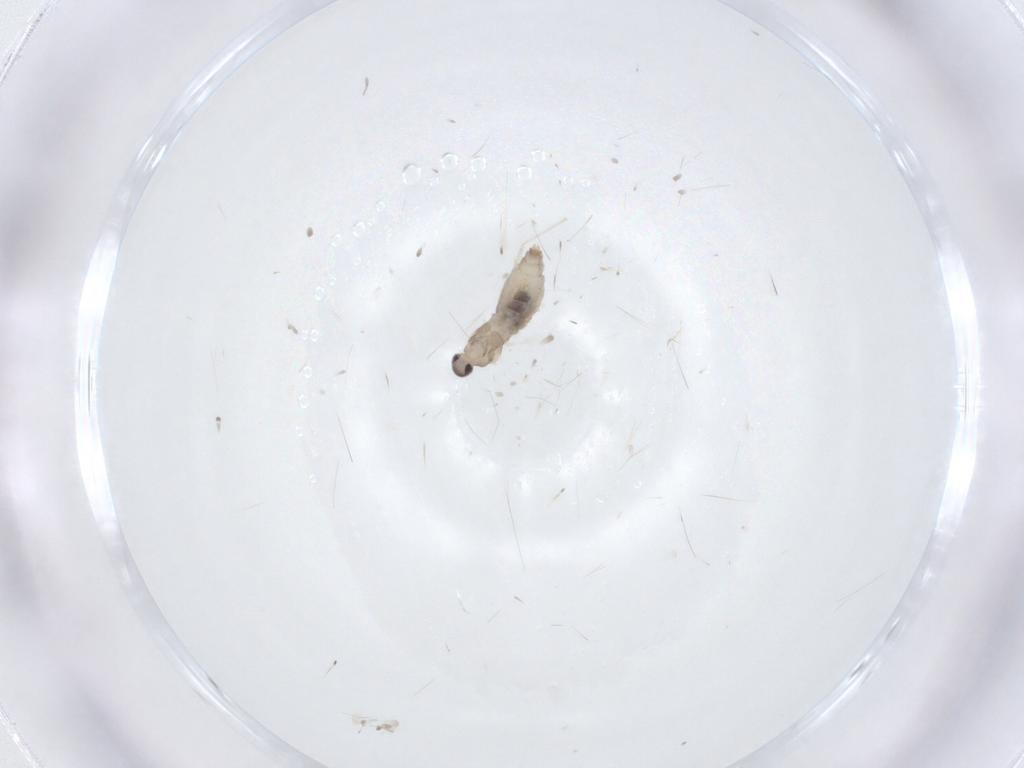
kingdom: Animalia
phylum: Arthropoda
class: Insecta
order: Diptera
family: Cecidomyiidae
